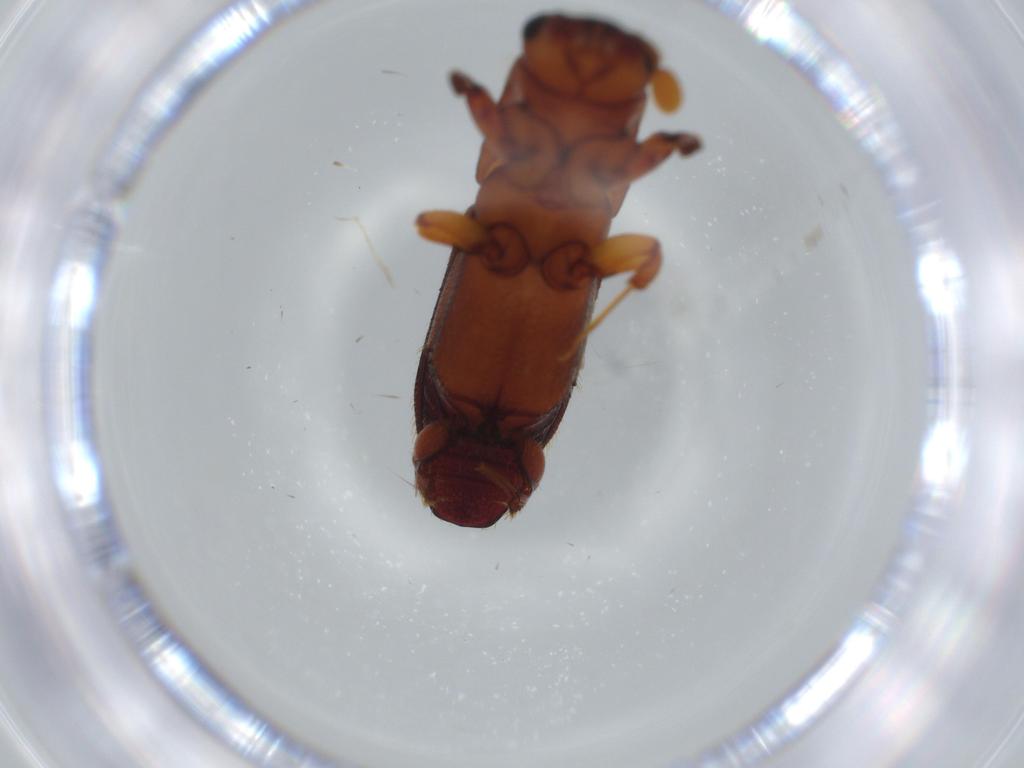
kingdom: Animalia
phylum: Arthropoda
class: Insecta
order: Coleoptera
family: Curculionidae
